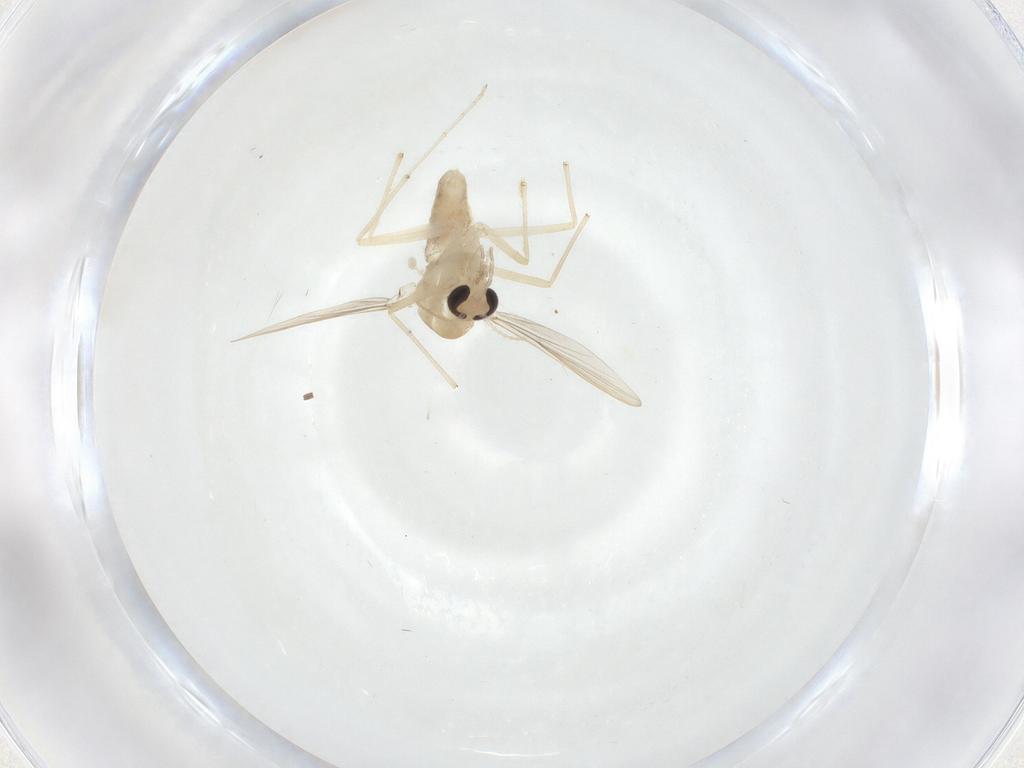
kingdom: Animalia
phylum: Arthropoda
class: Insecta
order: Diptera
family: Chironomidae
